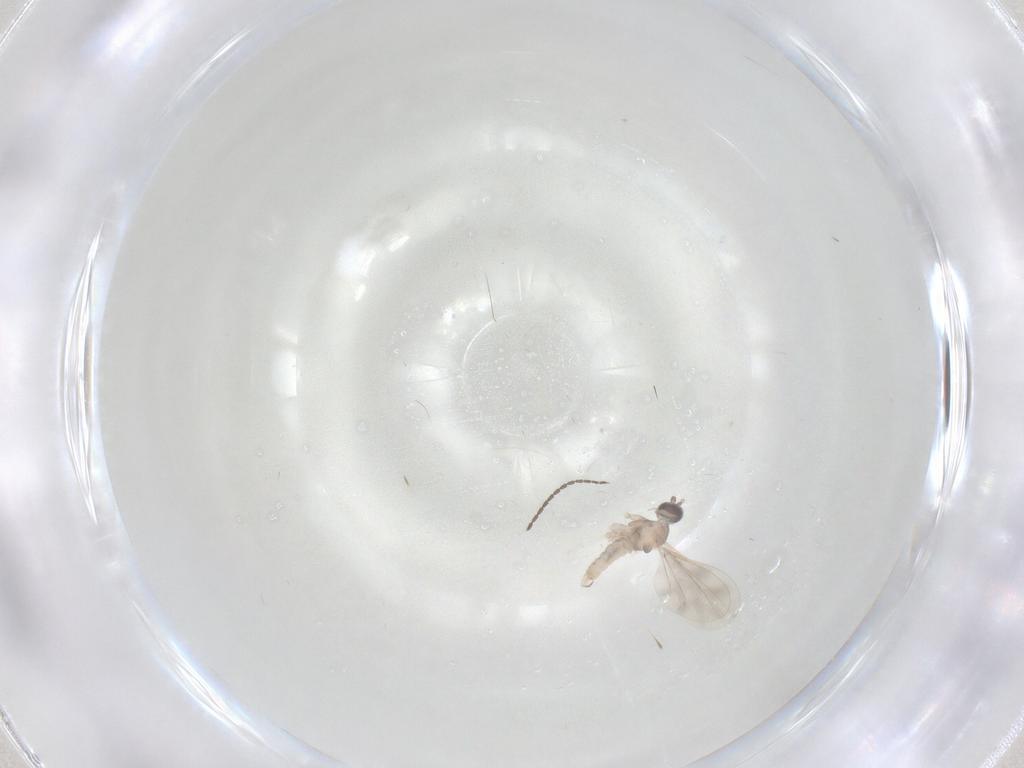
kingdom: Animalia
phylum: Arthropoda
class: Insecta
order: Diptera
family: Cecidomyiidae
